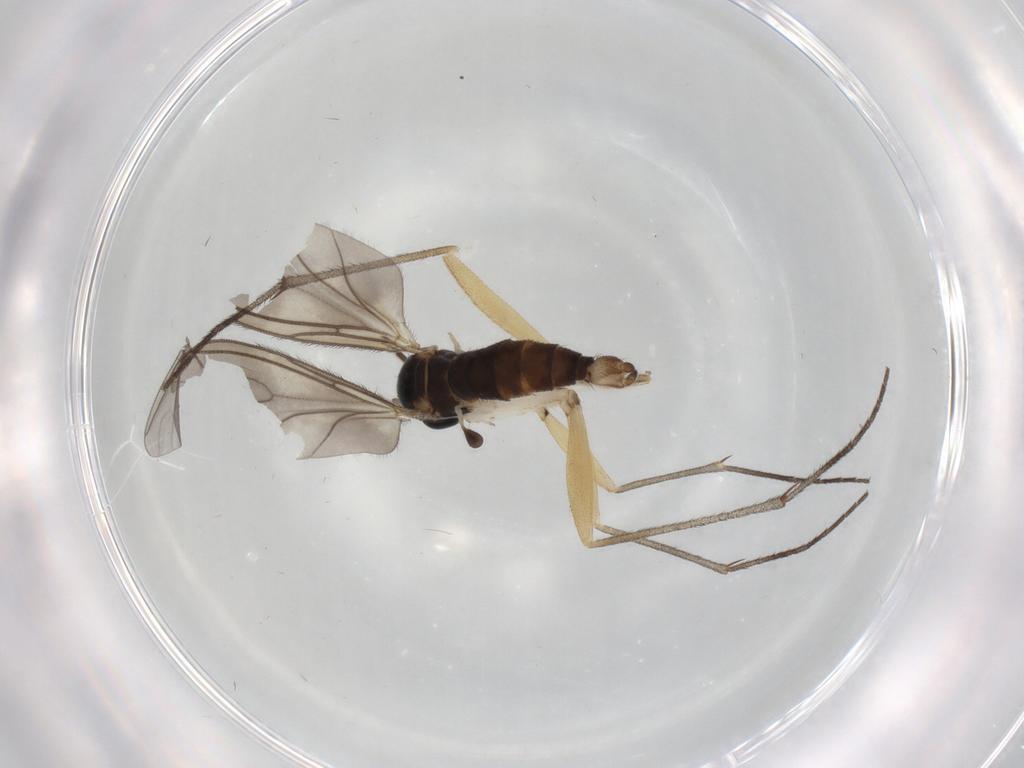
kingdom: Animalia
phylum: Arthropoda
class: Insecta
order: Diptera
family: Sciaridae
